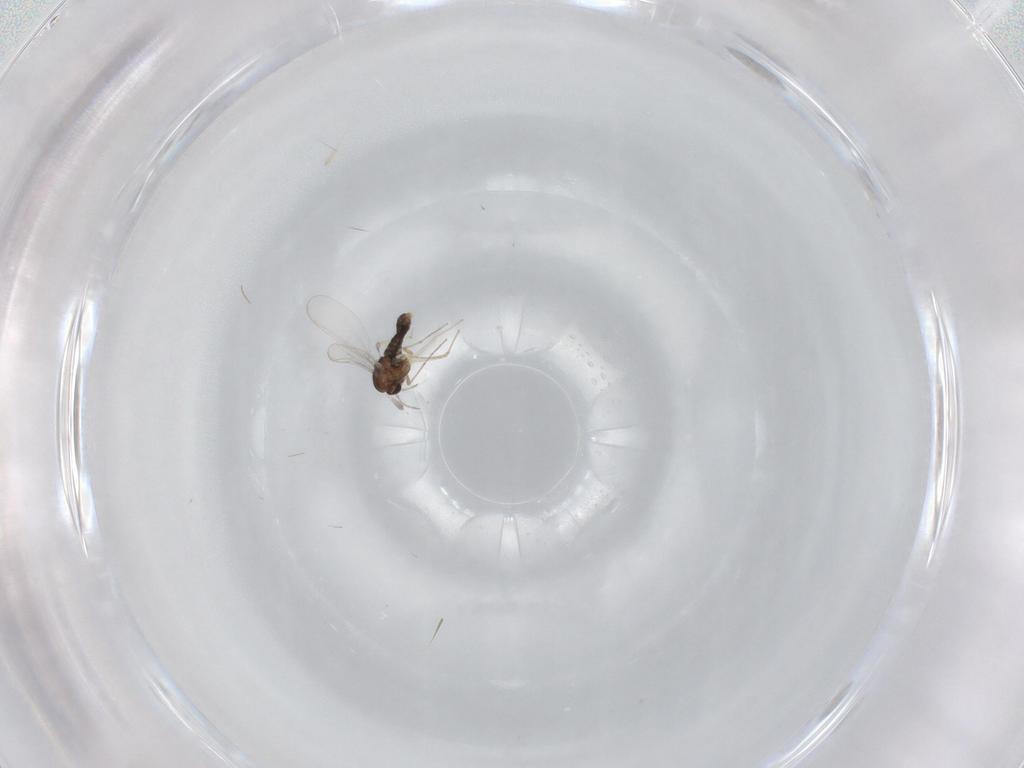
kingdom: Animalia
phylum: Arthropoda
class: Insecta
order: Diptera
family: Chironomidae
